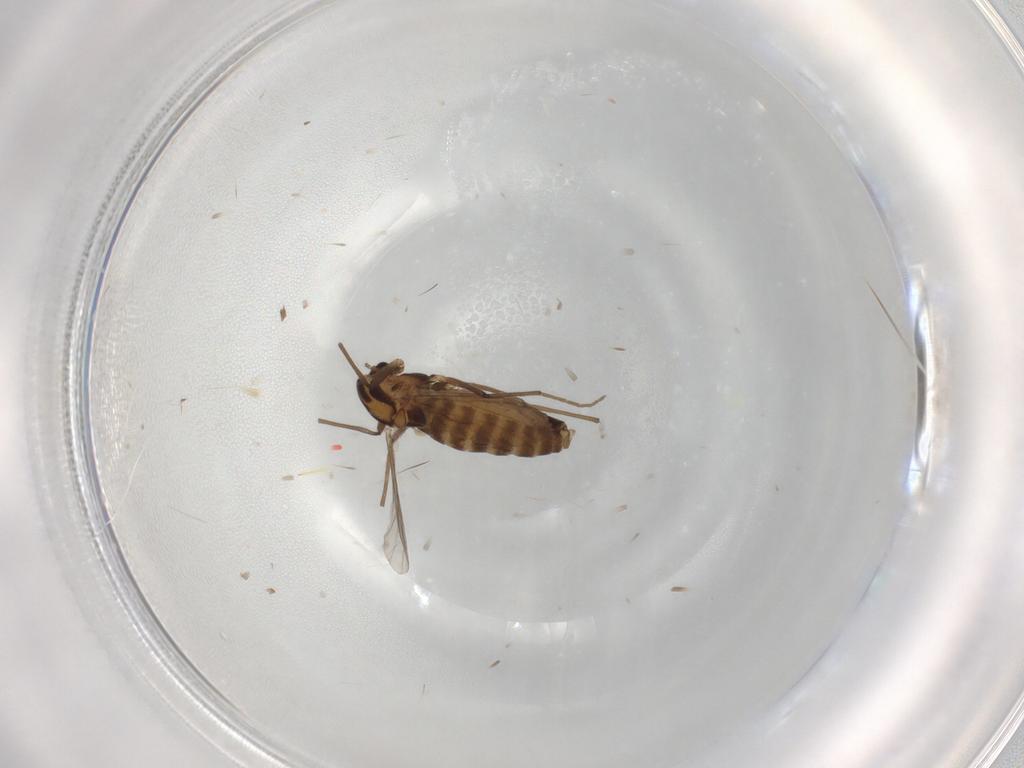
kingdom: Animalia
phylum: Arthropoda
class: Insecta
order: Diptera
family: Chironomidae
